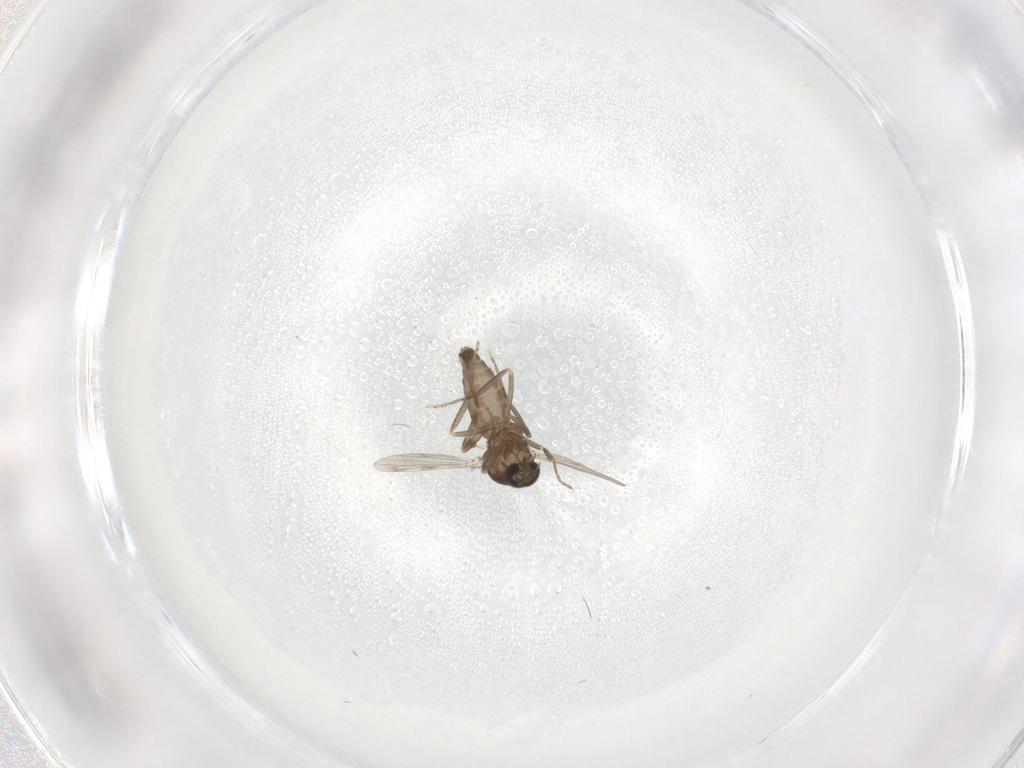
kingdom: Animalia
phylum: Arthropoda
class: Insecta
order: Diptera
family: Ceratopogonidae
